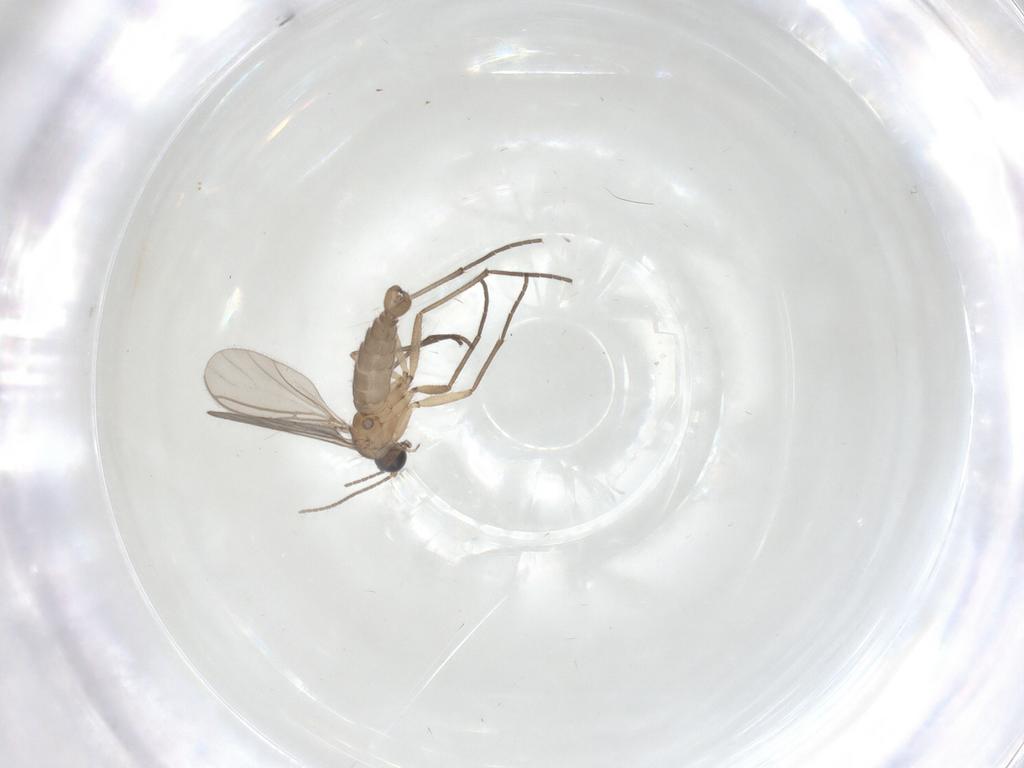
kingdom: Animalia
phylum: Arthropoda
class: Insecta
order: Diptera
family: Sciaridae
